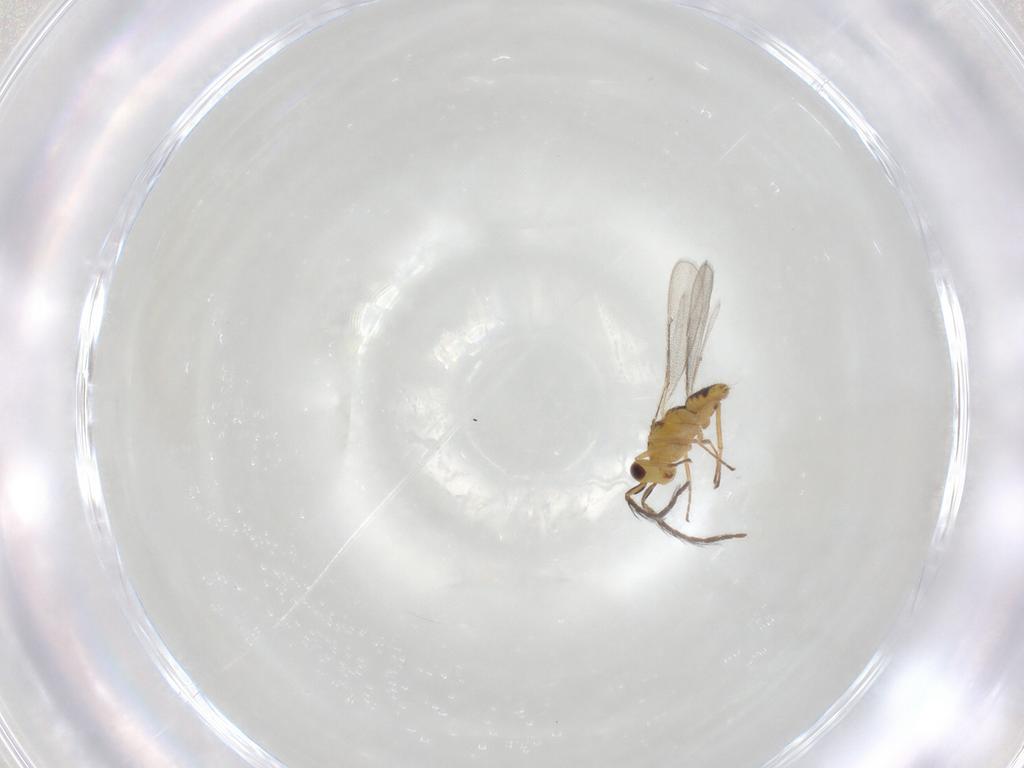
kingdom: Animalia
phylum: Arthropoda
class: Insecta
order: Hymenoptera
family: Eulophidae
